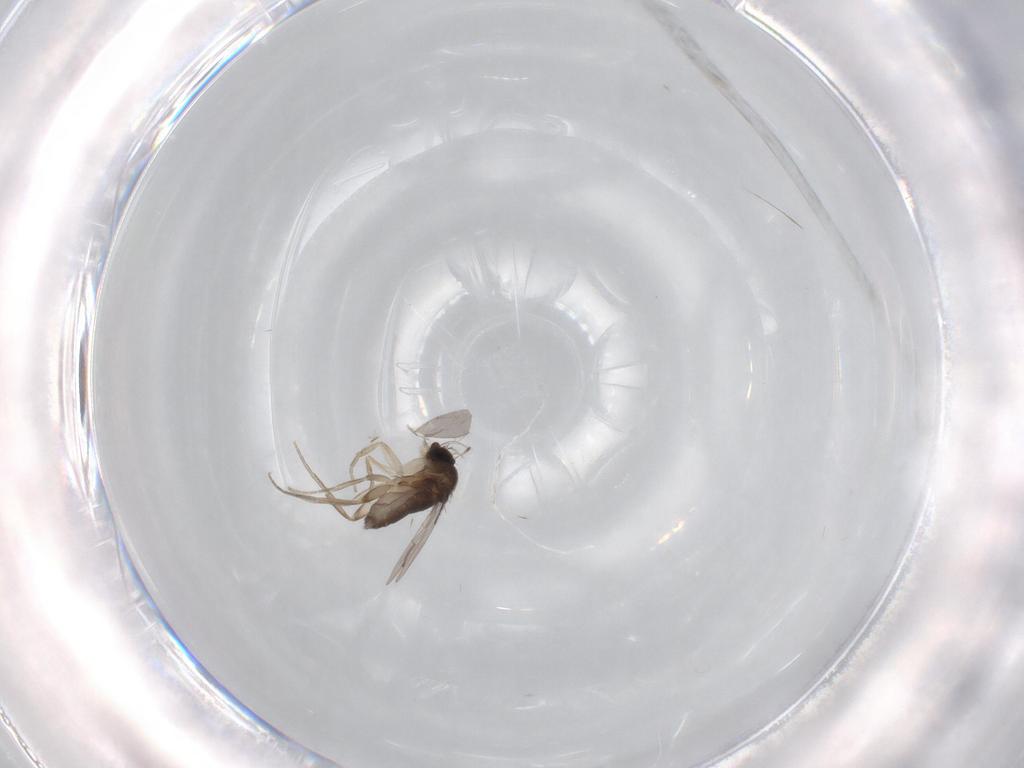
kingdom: Animalia
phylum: Arthropoda
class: Insecta
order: Diptera
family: Phoridae
